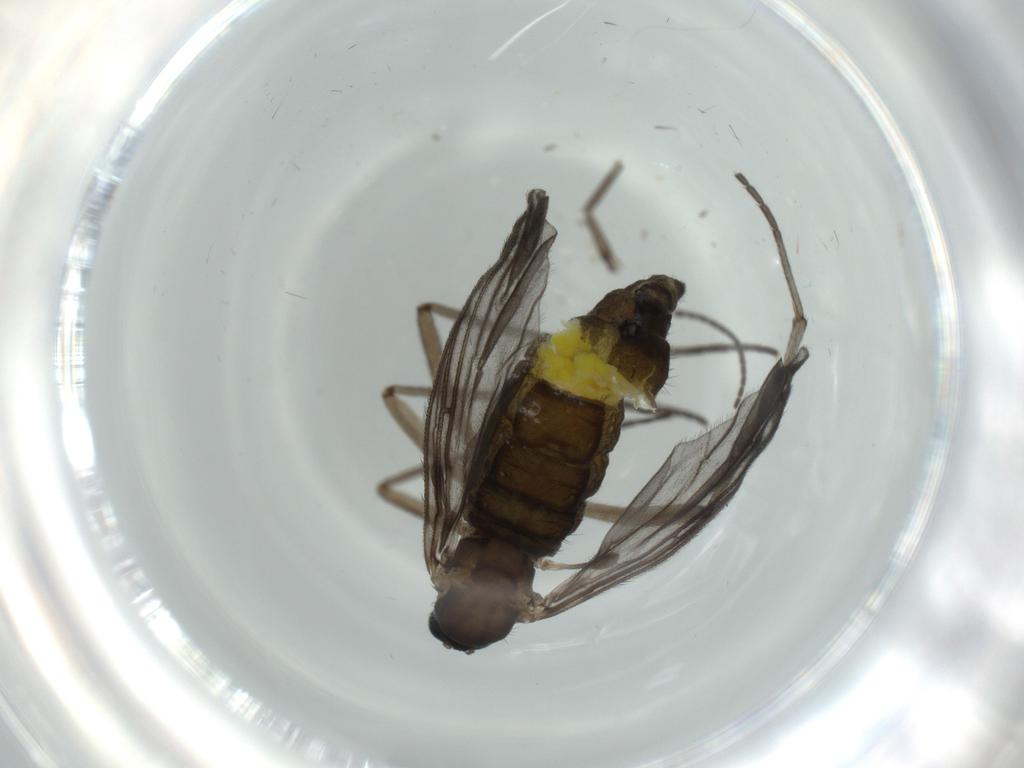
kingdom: Animalia
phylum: Arthropoda
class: Insecta
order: Diptera
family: Sciaridae
